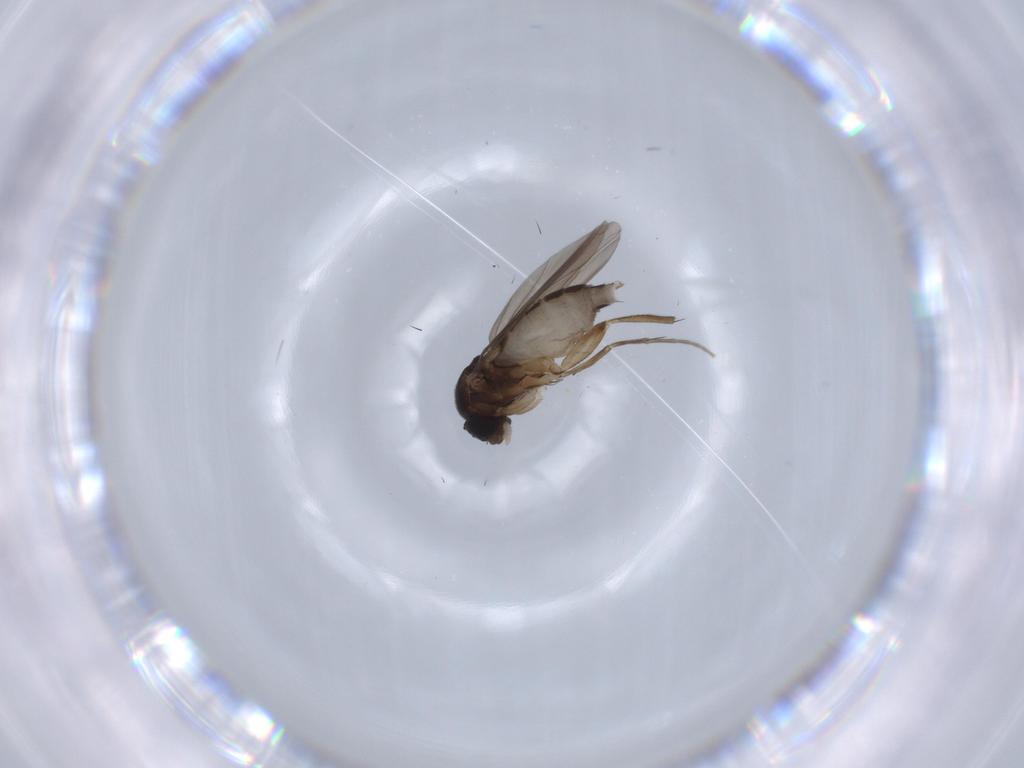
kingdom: Animalia
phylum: Arthropoda
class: Insecta
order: Diptera
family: Phoridae
